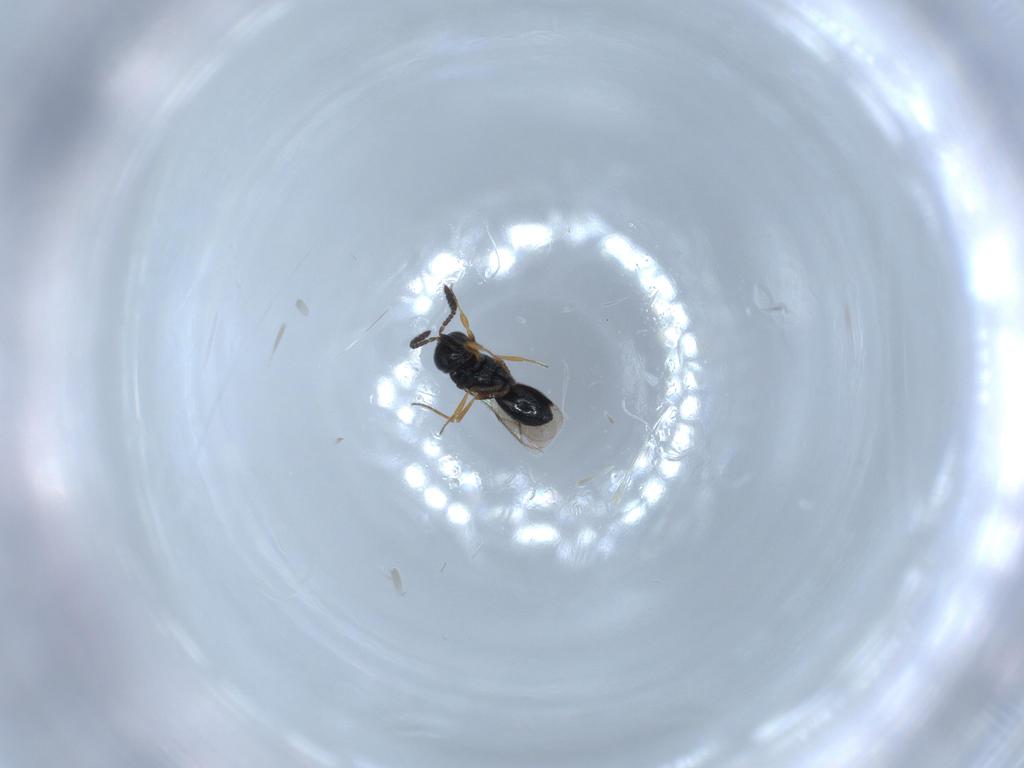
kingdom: Animalia
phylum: Arthropoda
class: Insecta
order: Hymenoptera
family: Scelionidae
